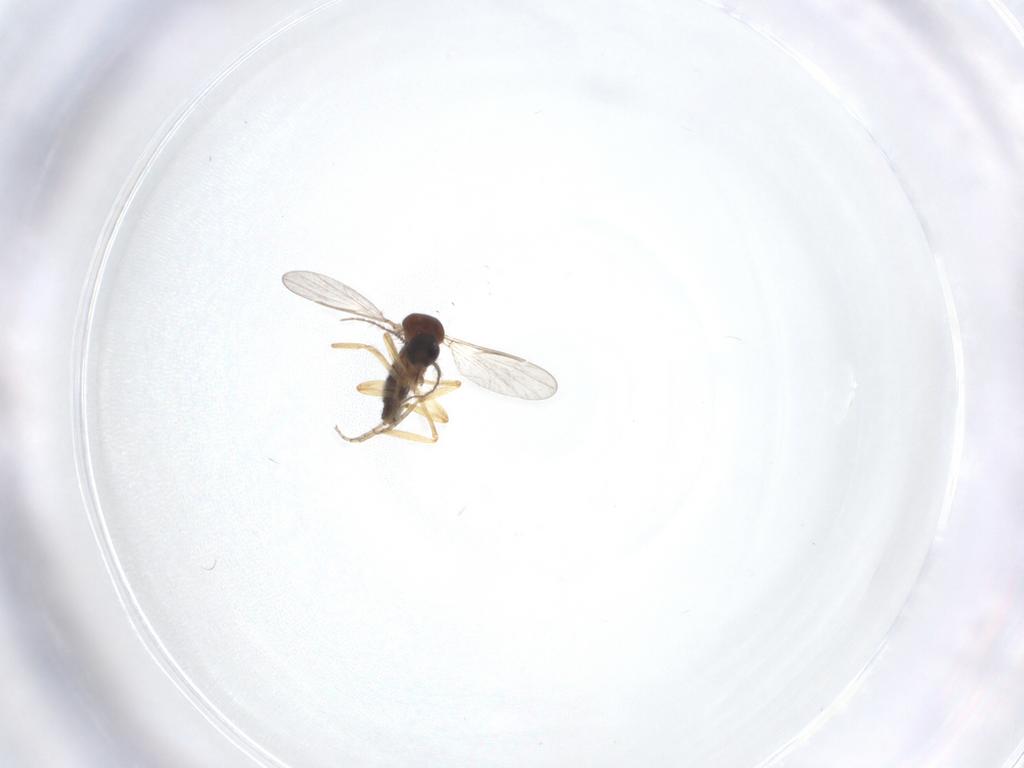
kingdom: Animalia
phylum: Arthropoda
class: Insecta
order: Diptera
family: Ceratopogonidae
